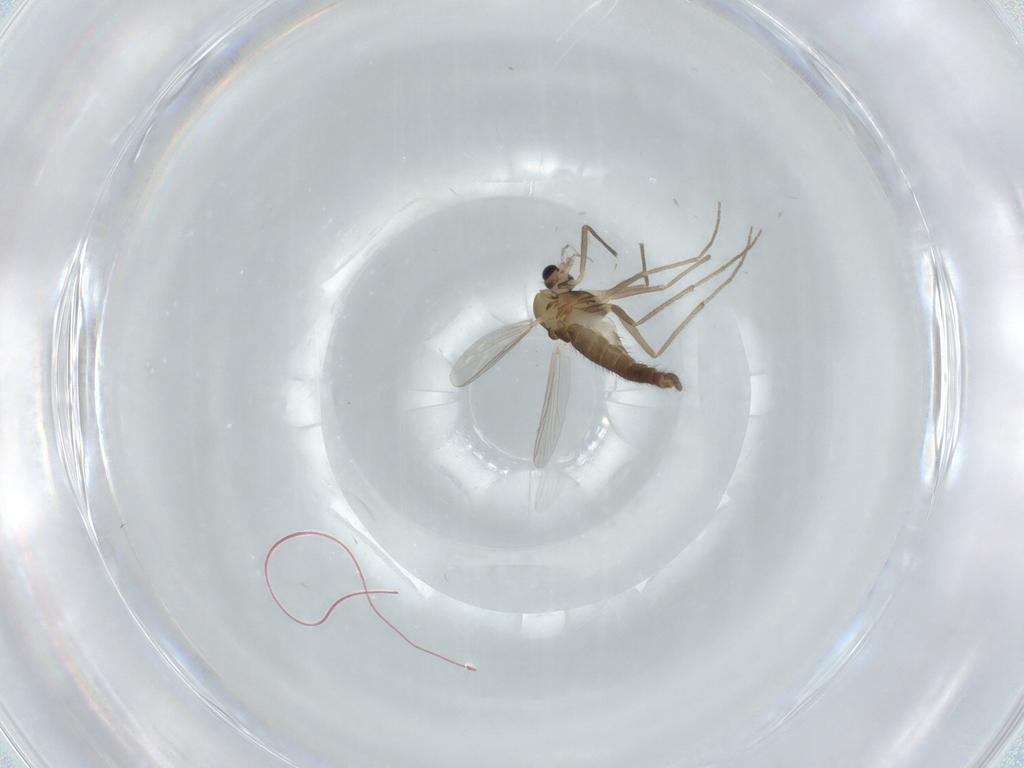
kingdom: Animalia
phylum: Arthropoda
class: Insecta
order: Diptera
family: Chironomidae
